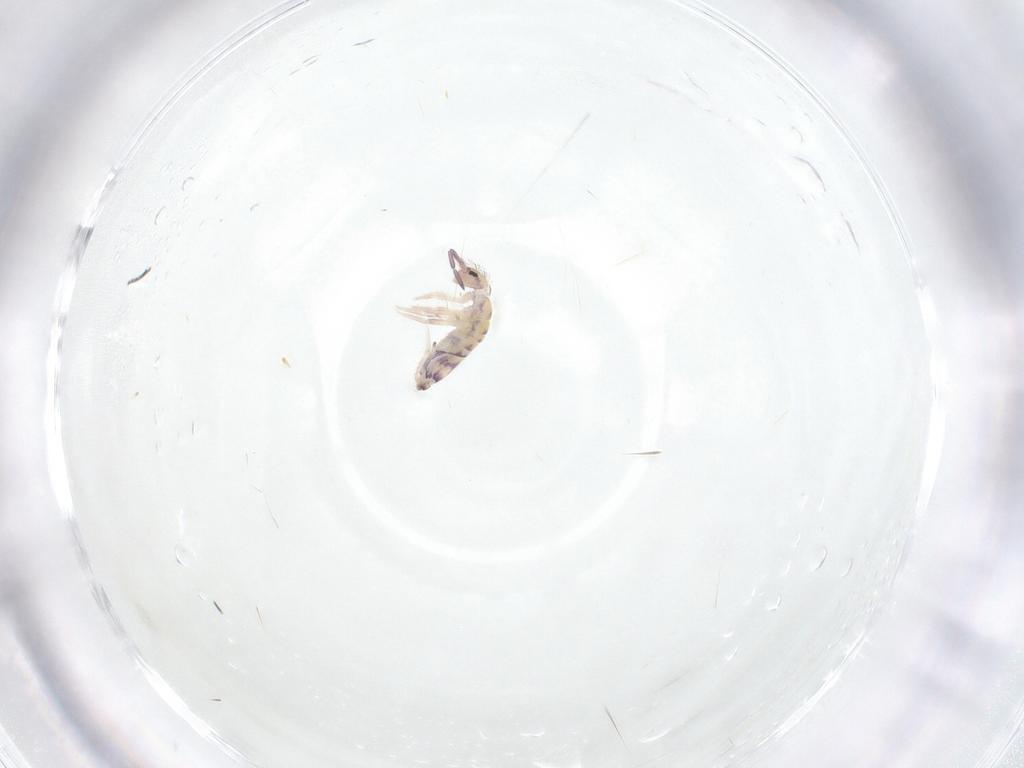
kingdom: Animalia
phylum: Arthropoda
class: Collembola
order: Entomobryomorpha
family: Entomobryidae
